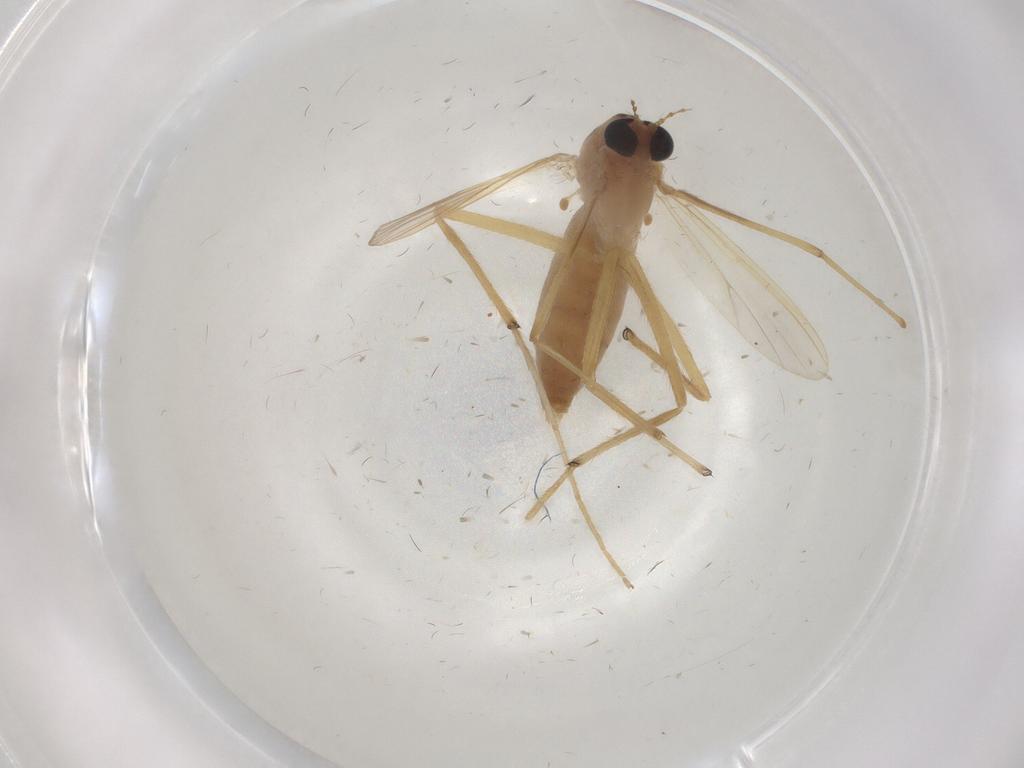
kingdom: Animalia
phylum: Arthropoda
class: Insecta
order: Diptera
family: Chironomidae
